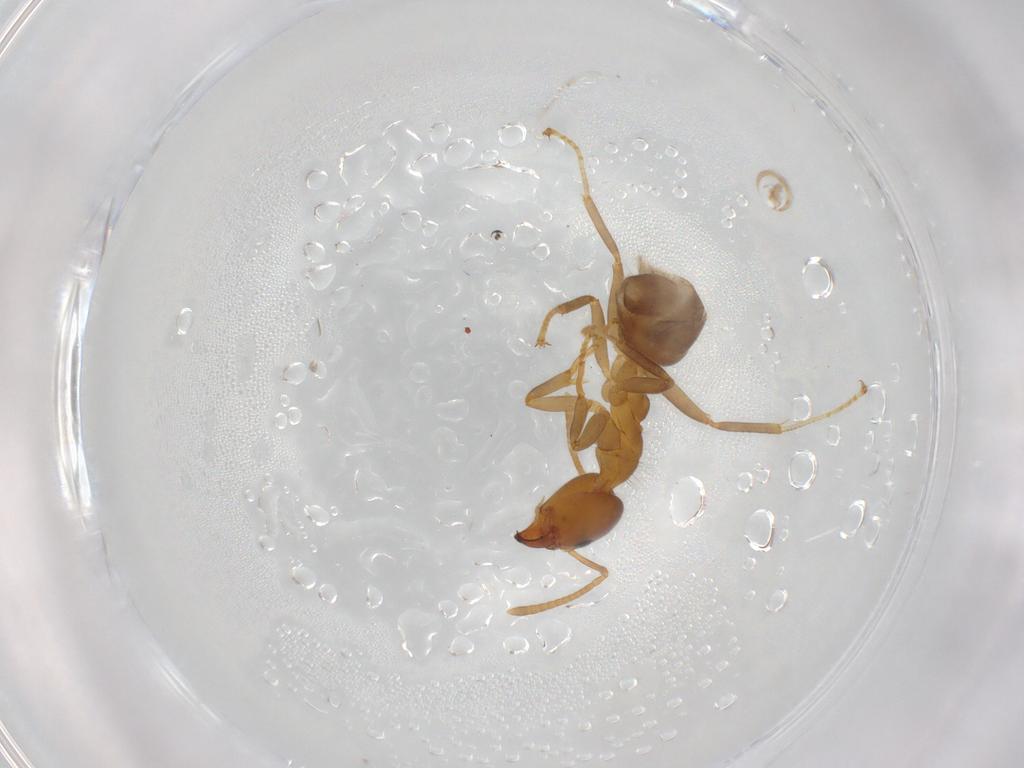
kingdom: Animalia
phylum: Arthropoda
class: Insecta
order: Hymenoptera
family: Formicidae
